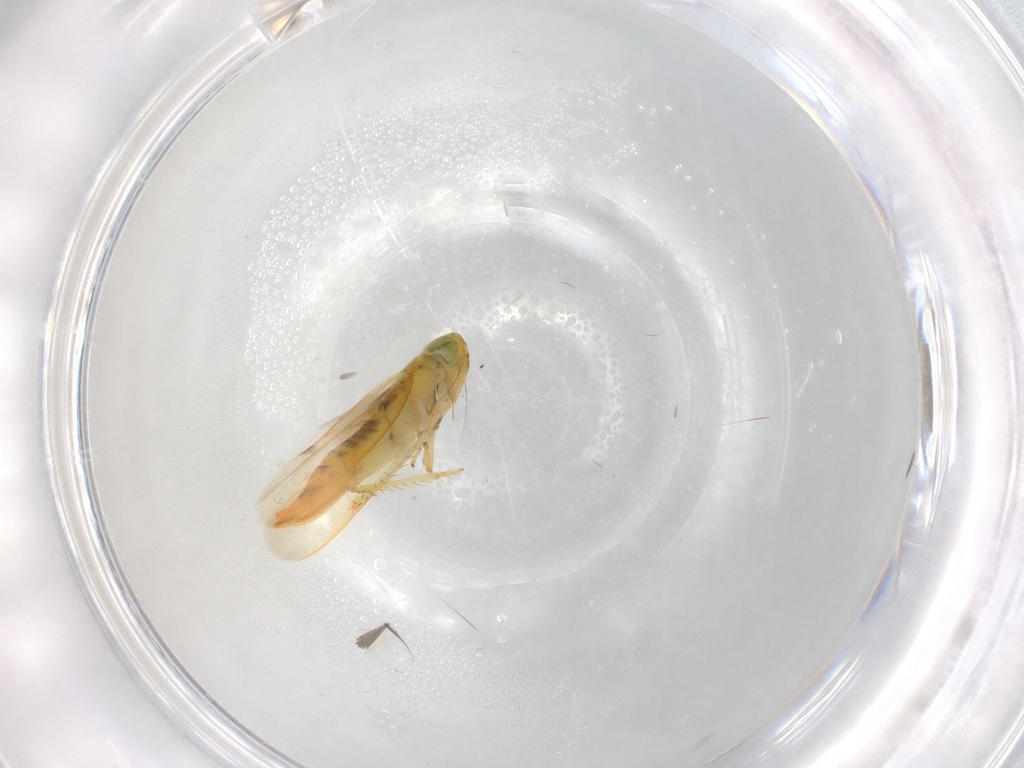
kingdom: Animalia
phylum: Arthropoda
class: Insecta
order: Hemiptera
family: Cicadellidae
